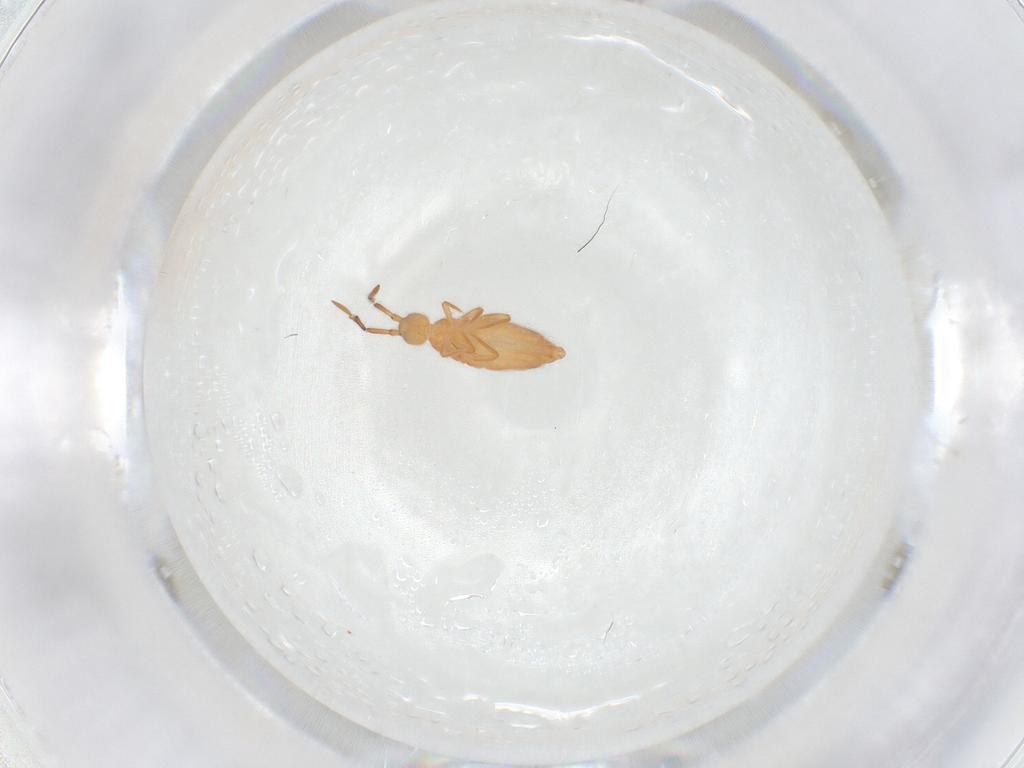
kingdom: Animalia
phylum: Arthropoda
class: Collembola
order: Entomobryomorpha
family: Entomobryidae
